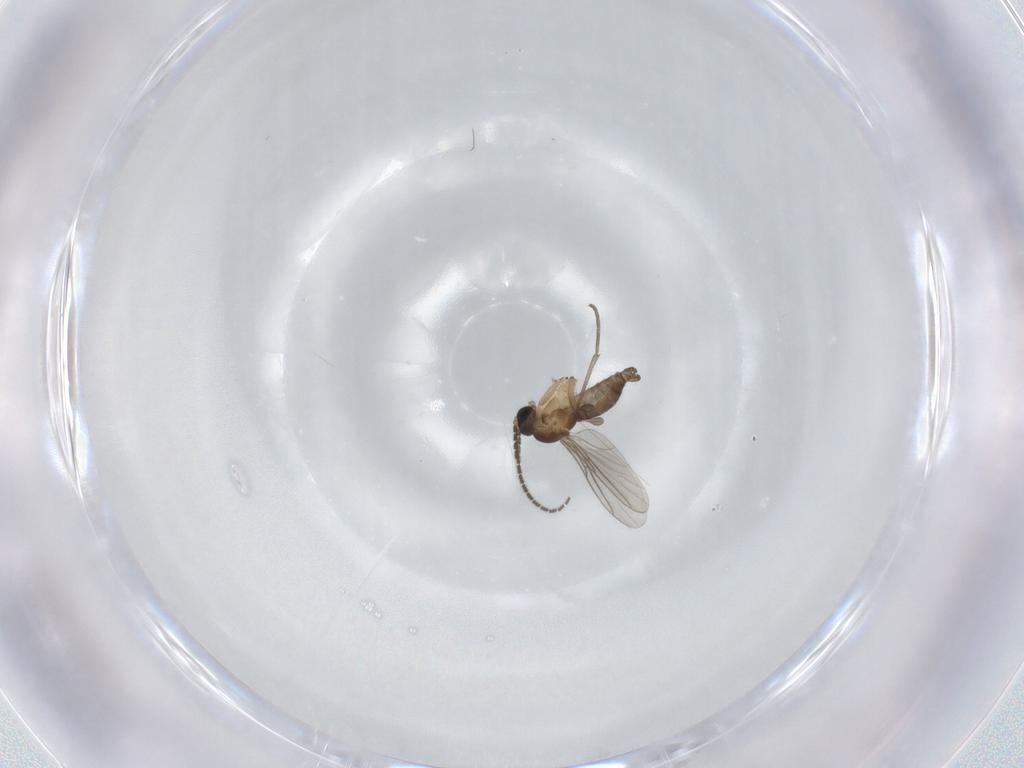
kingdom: Animalia
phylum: Arthropoda
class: Insecta
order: Diptera
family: Sciaridae
